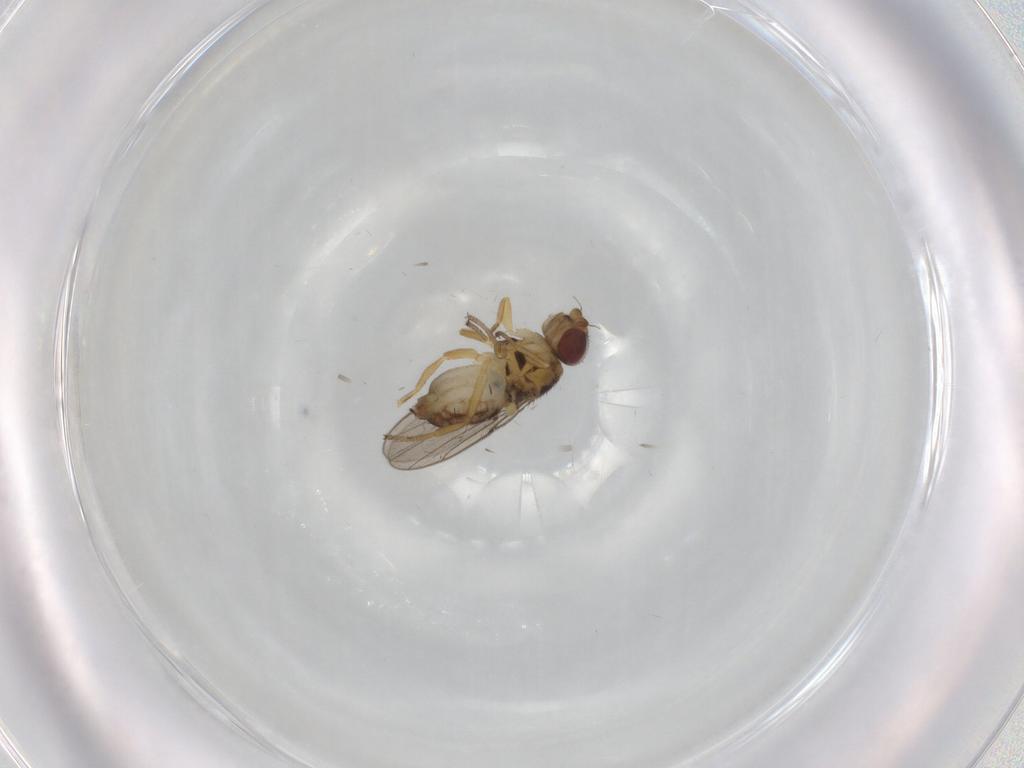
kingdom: Animalia
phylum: Arthropoda
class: Insecta
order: Diptera
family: Chloropidae
